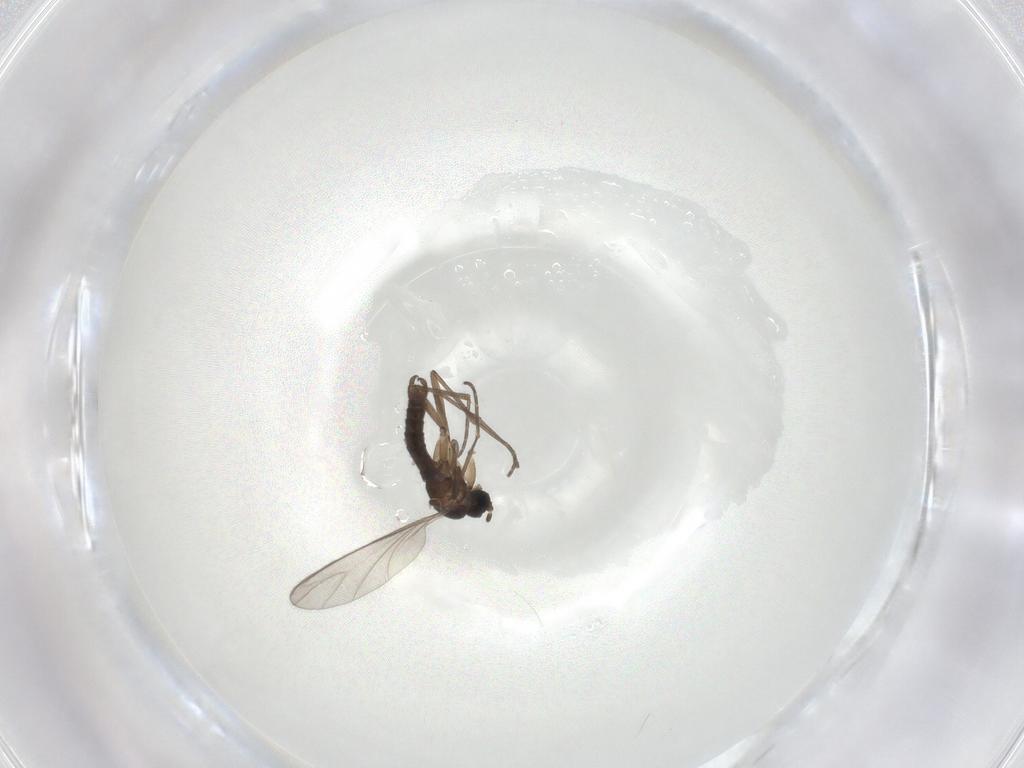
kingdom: Animalia
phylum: Arthropoda
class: Insecta
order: Diptera
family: Sciaridae
